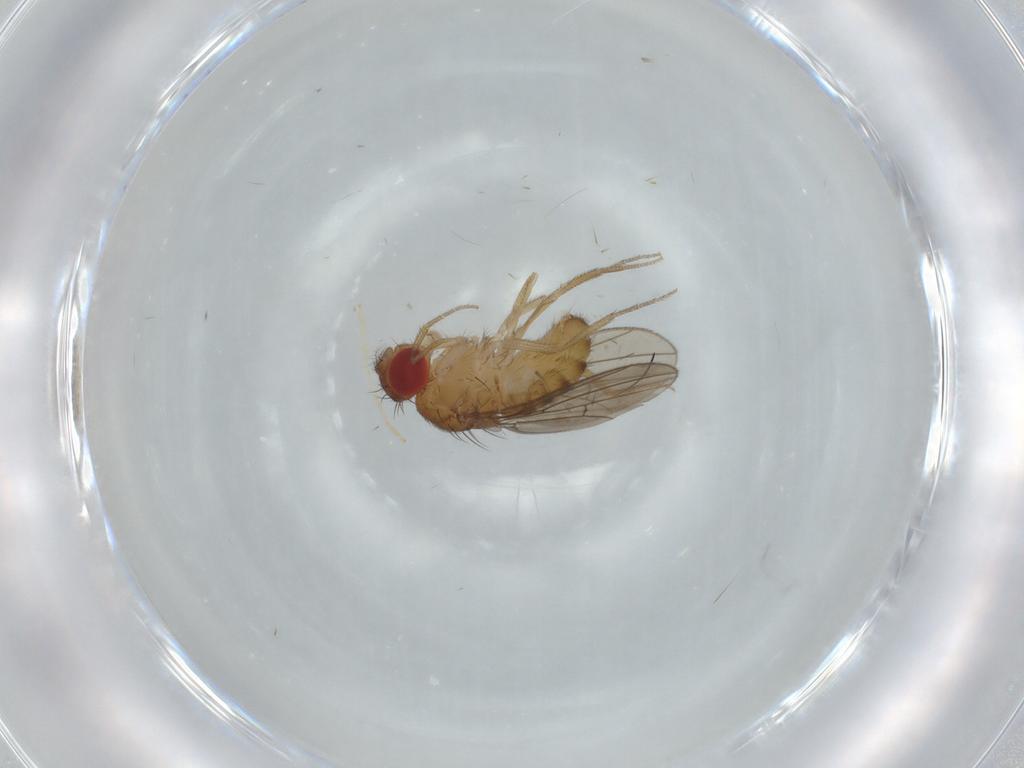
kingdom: Animalia
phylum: Arthropoda
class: Insecta
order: Diptera
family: Drosophilidae
